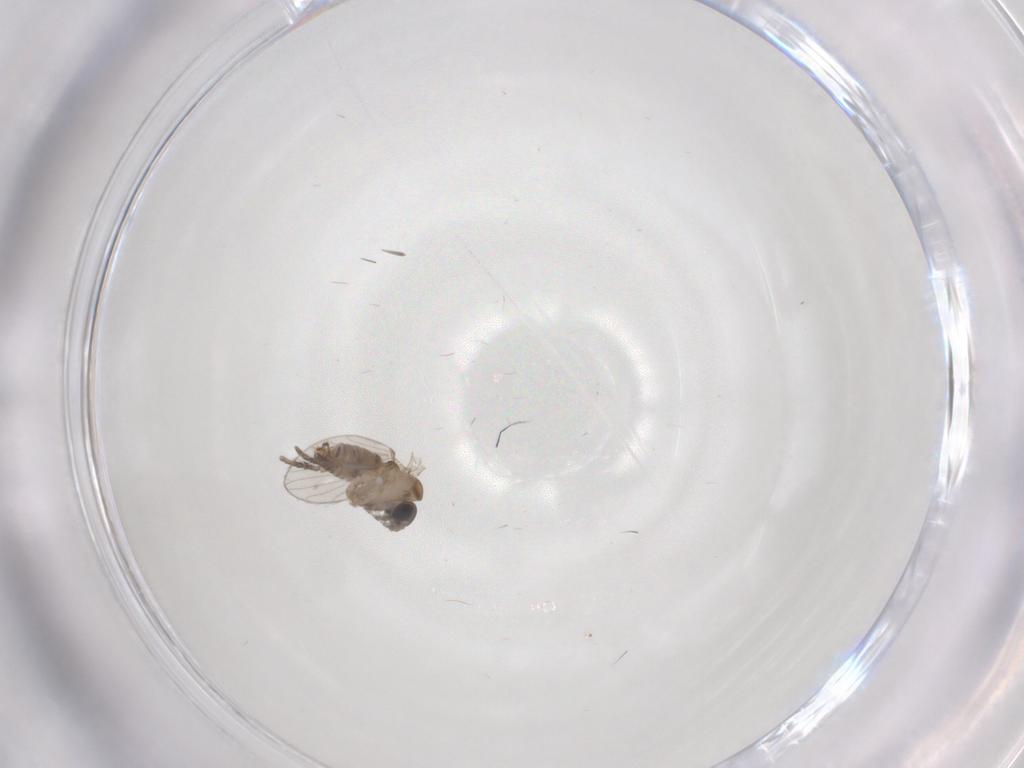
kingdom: Animalia
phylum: Arthropoda
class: Insecta
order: Diptera
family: Psychodidae
